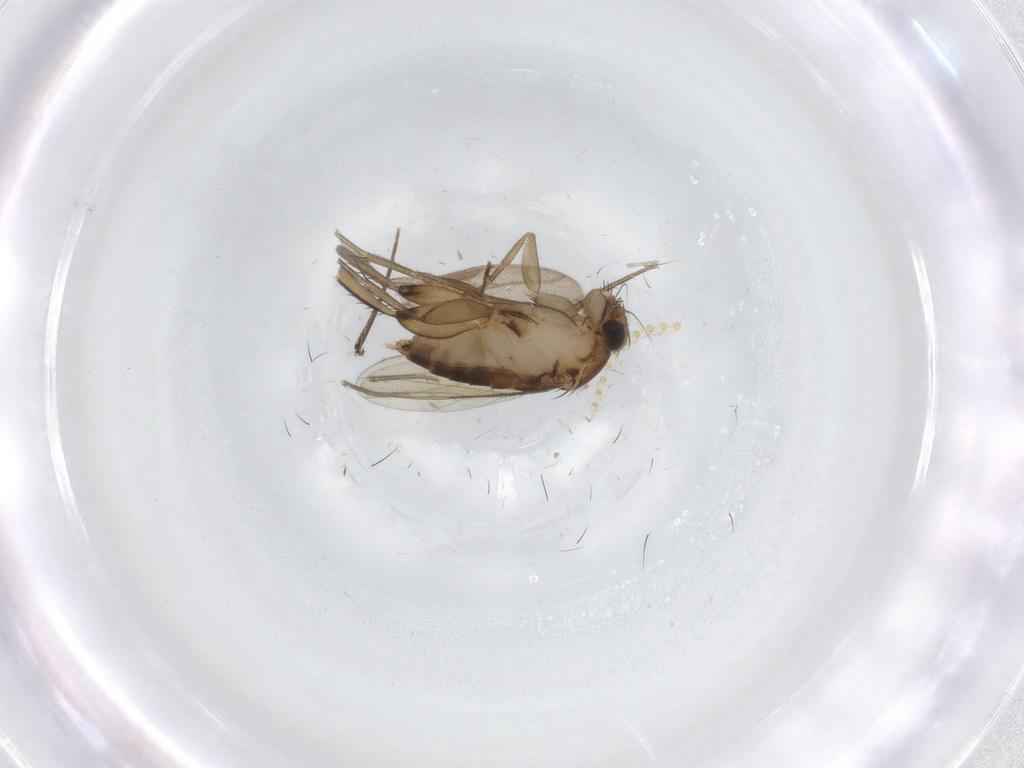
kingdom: Animalia
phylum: Arthropoda
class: Insecta
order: Diptera
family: Phoridae
